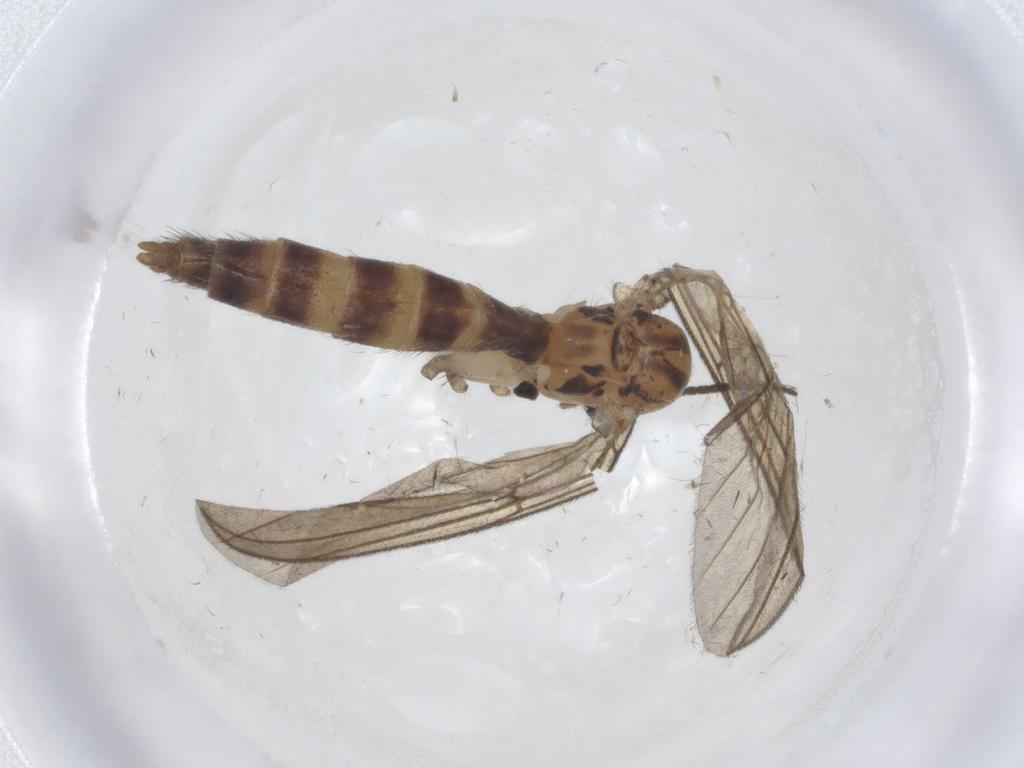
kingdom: Animalia
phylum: Arthropoda
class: Insecta
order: Diptera
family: Mycetophilidae
